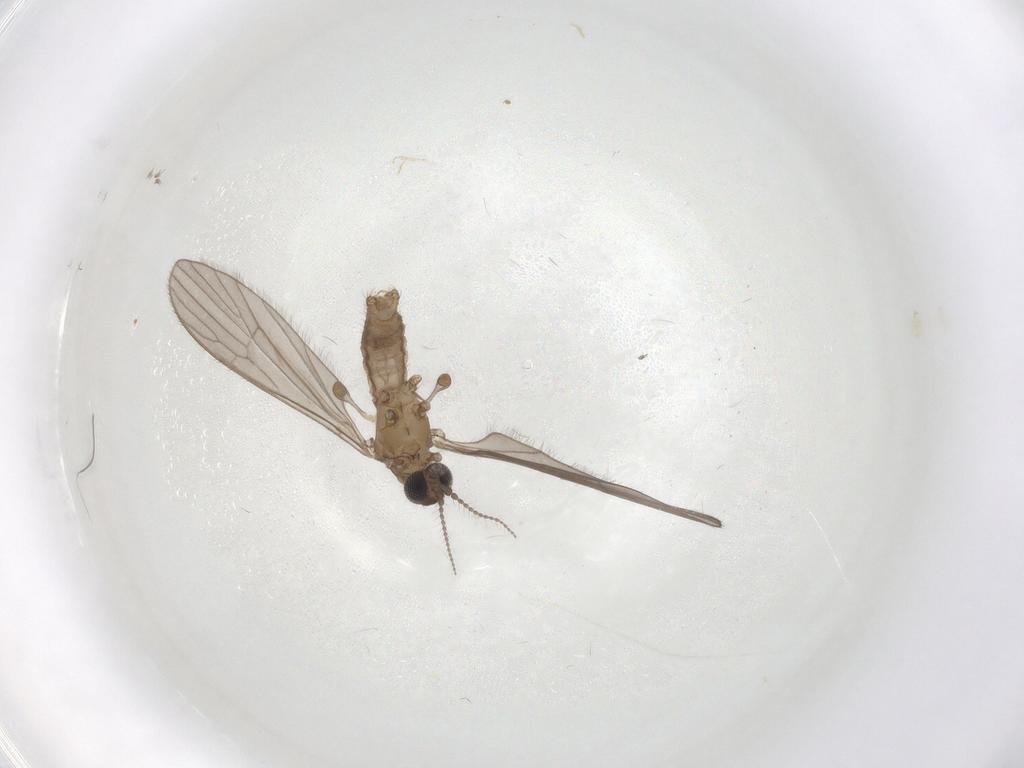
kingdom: Animalia
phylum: Arthropoda
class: Insecta
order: Diptera
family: Limoniidae
